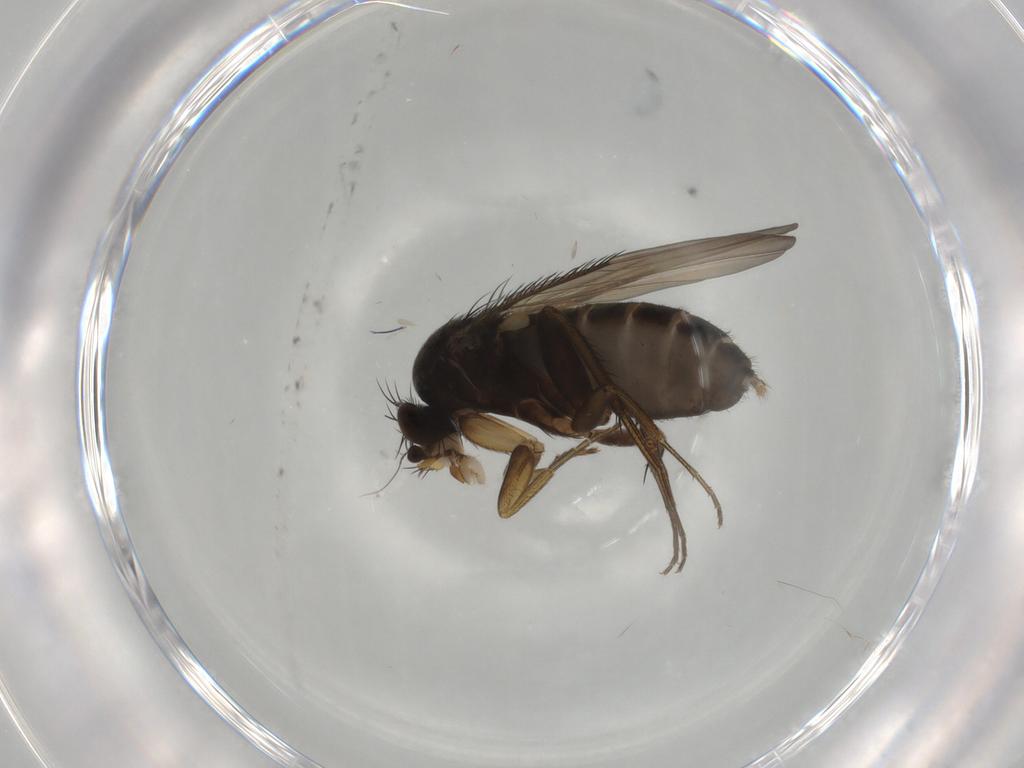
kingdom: Animalia
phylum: Arthropoda
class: Insecta
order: Diptera
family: Phoridae
